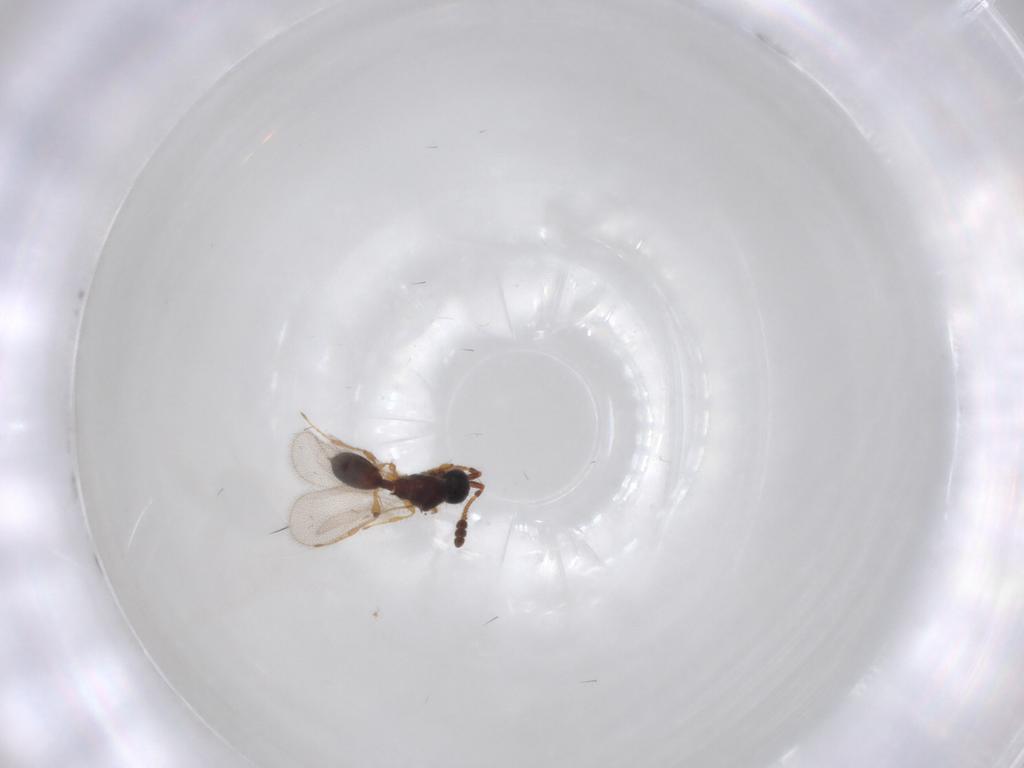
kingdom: Animalia
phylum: Arthropoda
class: Insecta
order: Hymenoptera
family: Diapriidae
